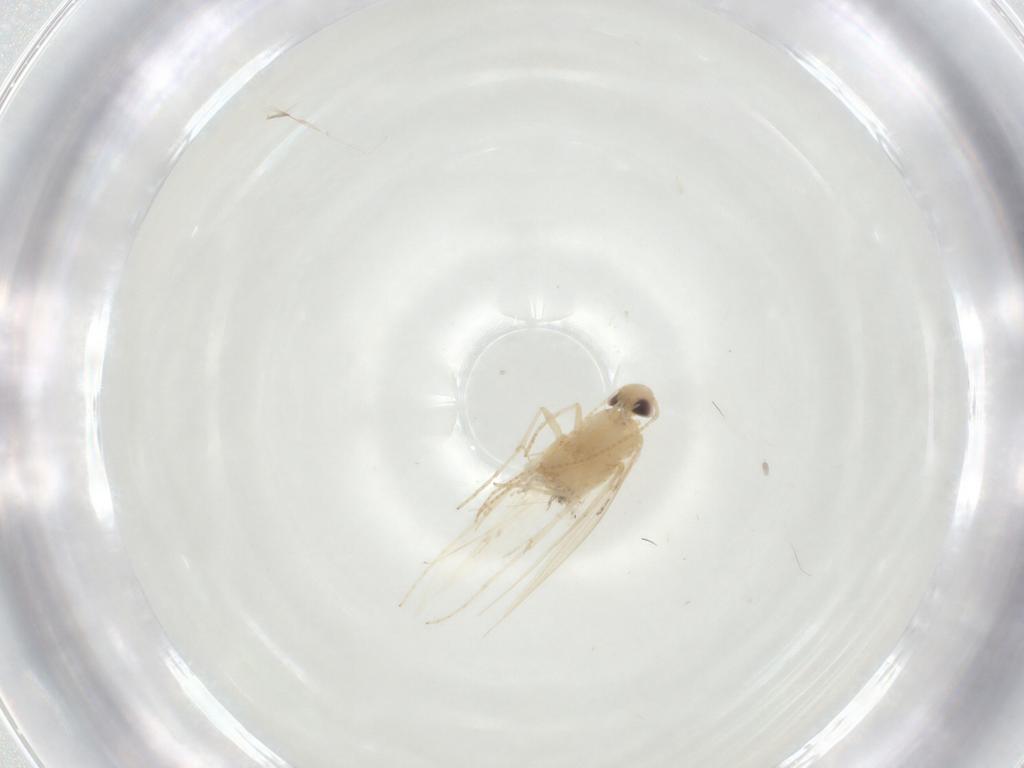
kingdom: Animalia
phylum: Arthropoda
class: Insecta
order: Lepidoptera
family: Gracillariidae
